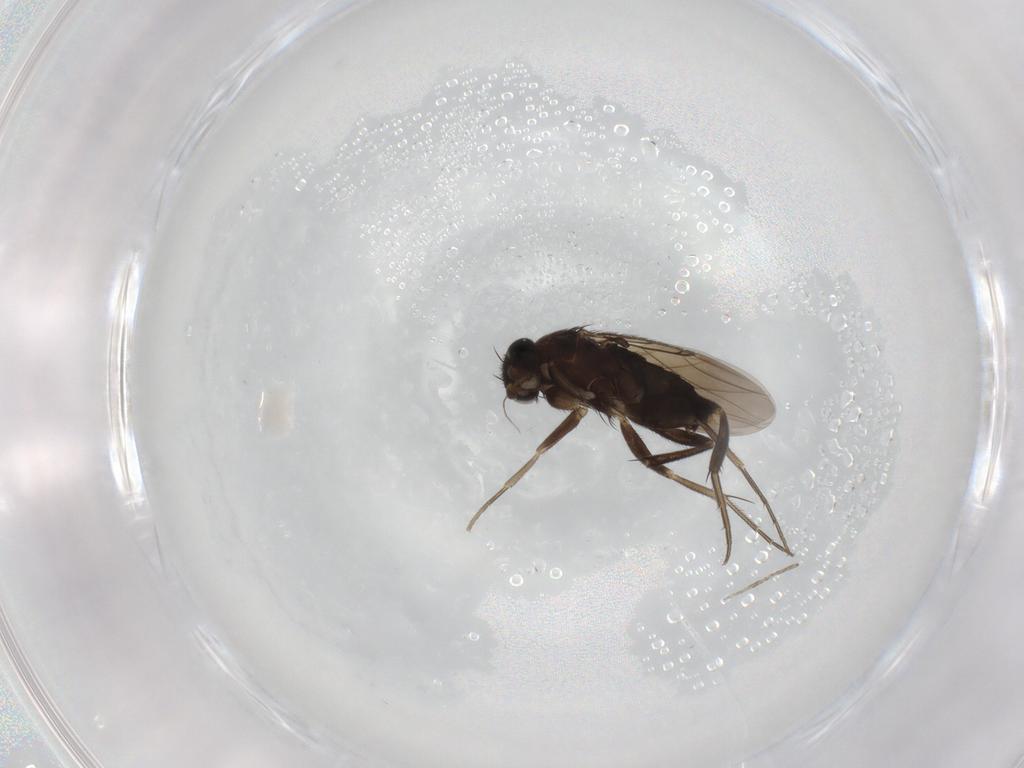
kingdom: Animalia
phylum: Arthropoda
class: Insecta
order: Diptera
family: Phoridae
